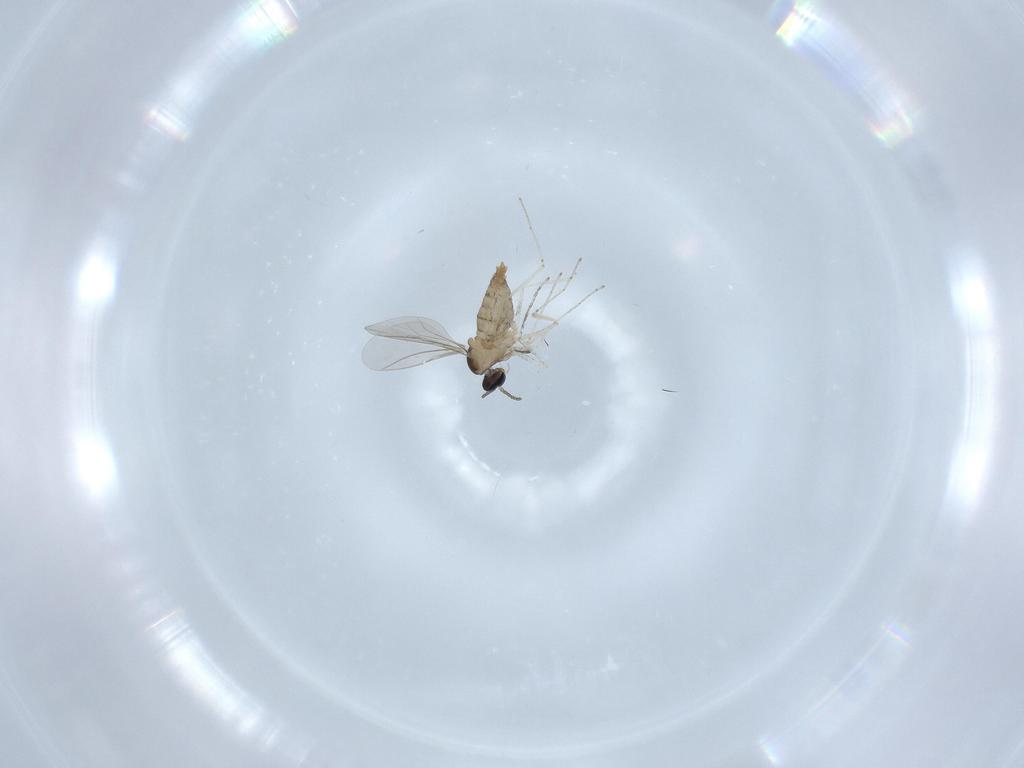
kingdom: Animalia
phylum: Arthropoda
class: Insecta
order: Diptera
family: Cecidomyiidae
